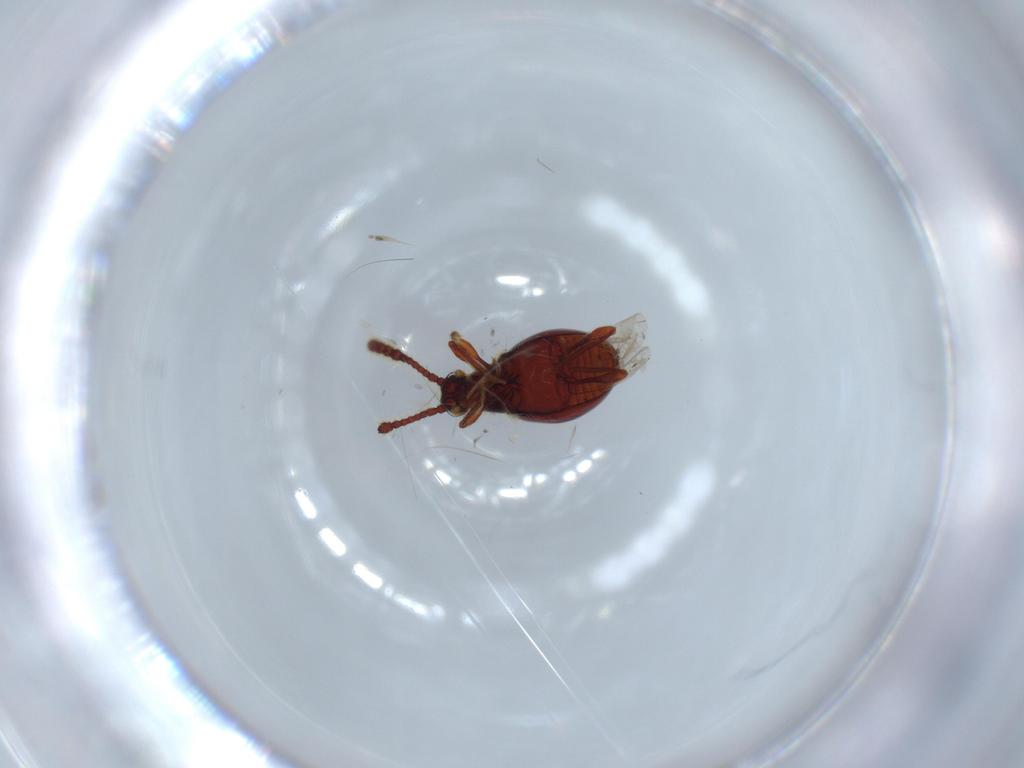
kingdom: Animalia
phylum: Arthropoda
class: Insecta
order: Coleoptera
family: Staphylinidae
